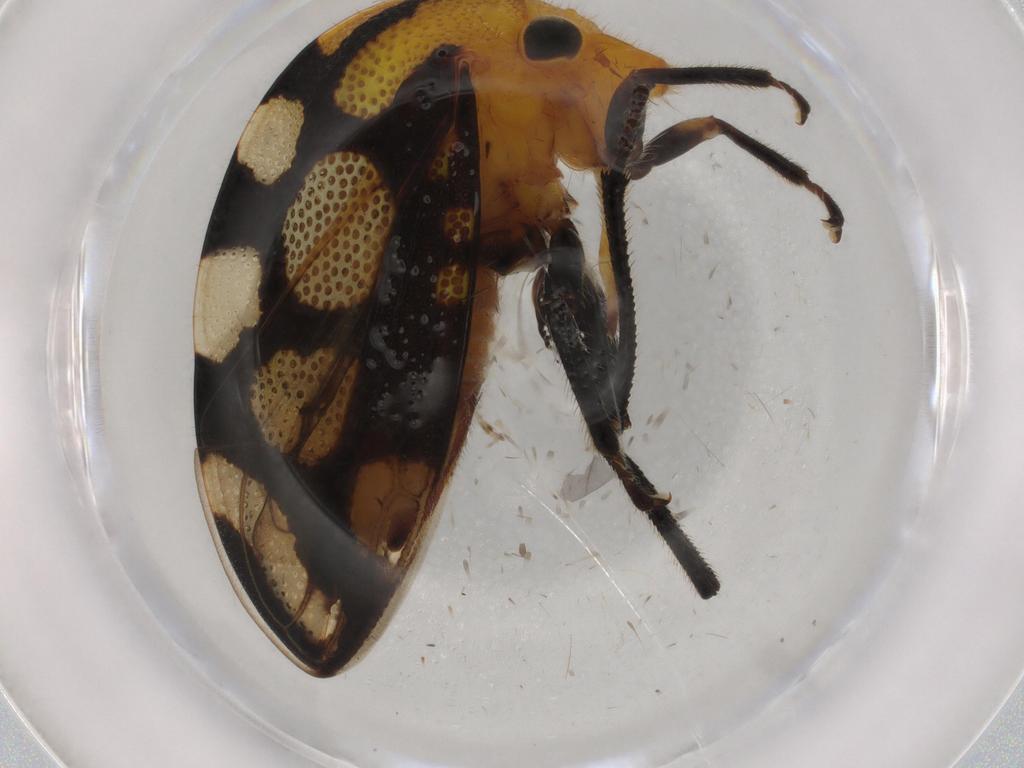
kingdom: Animalia
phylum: Arthropoda
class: Insecta
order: Hemiptera
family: Membracidae
